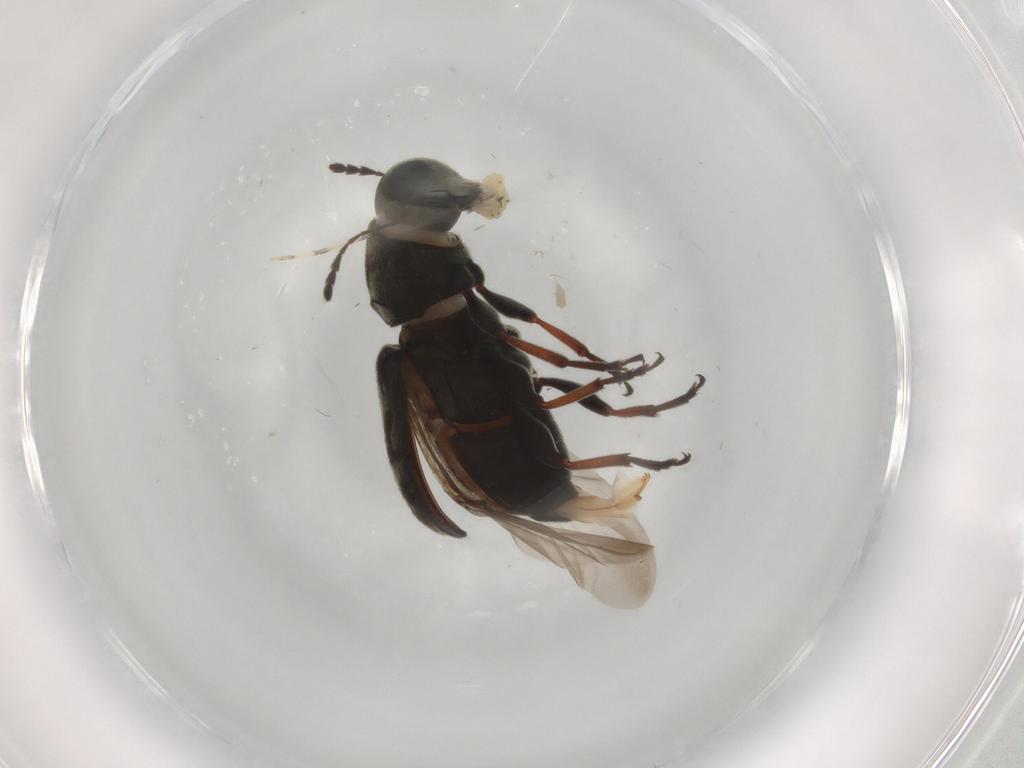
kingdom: Animalia
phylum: Arthropoda
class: Insecta
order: Coleoptera
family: Anthribidae
